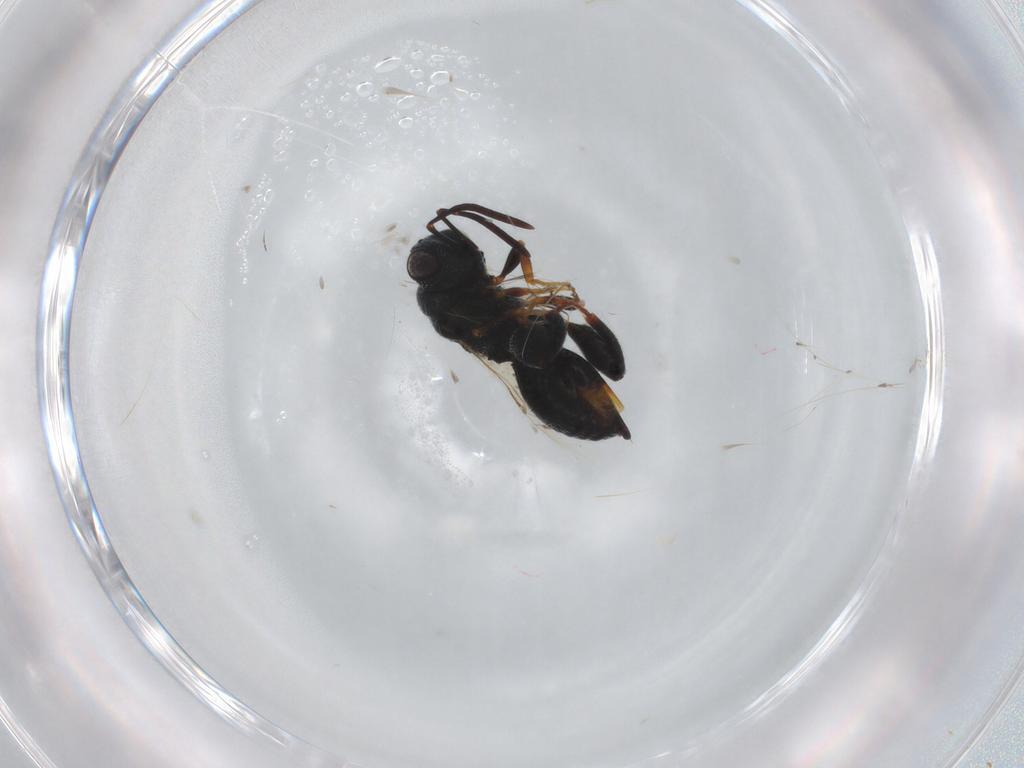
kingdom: Animalia
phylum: Arthropoda
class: Insecta
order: Hymenoptera
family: Chalcididae
